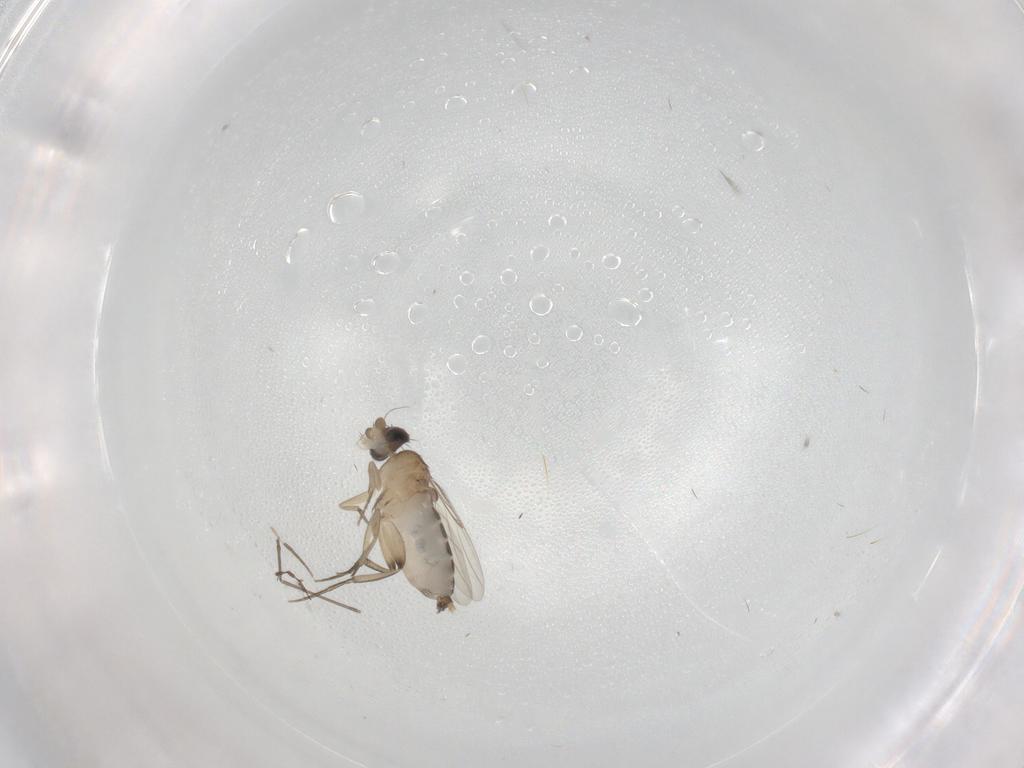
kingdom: Animalia
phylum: Arthropoda
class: Insecta
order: Diptera
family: Phoridae
